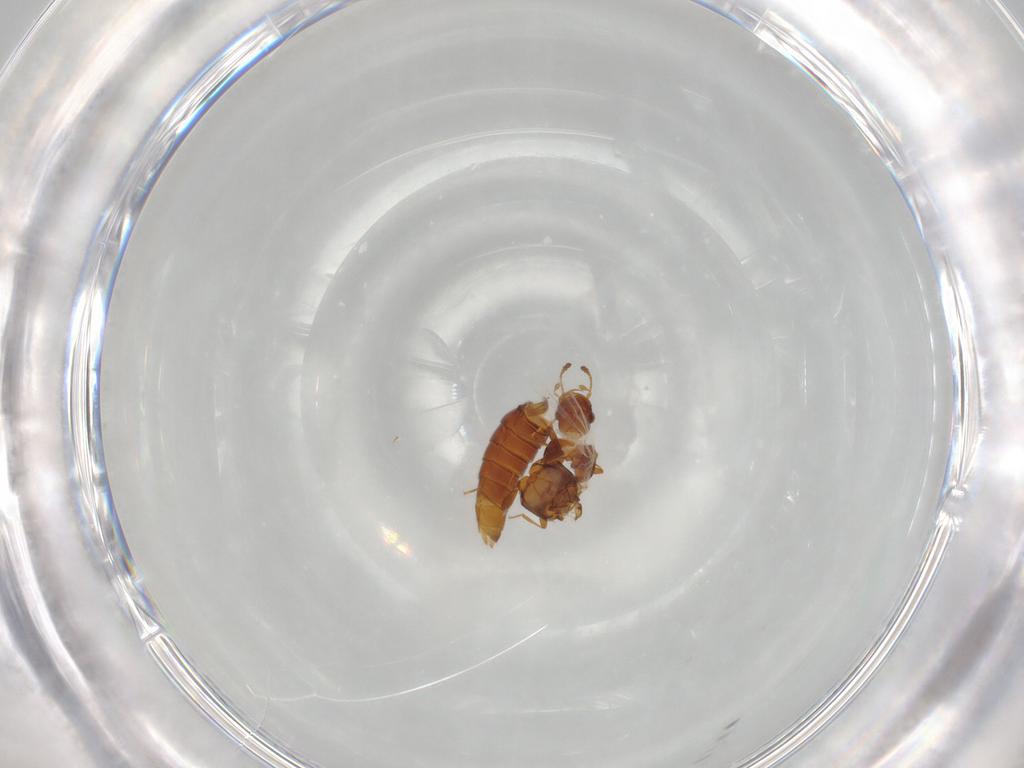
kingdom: Animalia
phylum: Arthropoda
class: Insecta
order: Coleoptera
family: Staphylinidae
